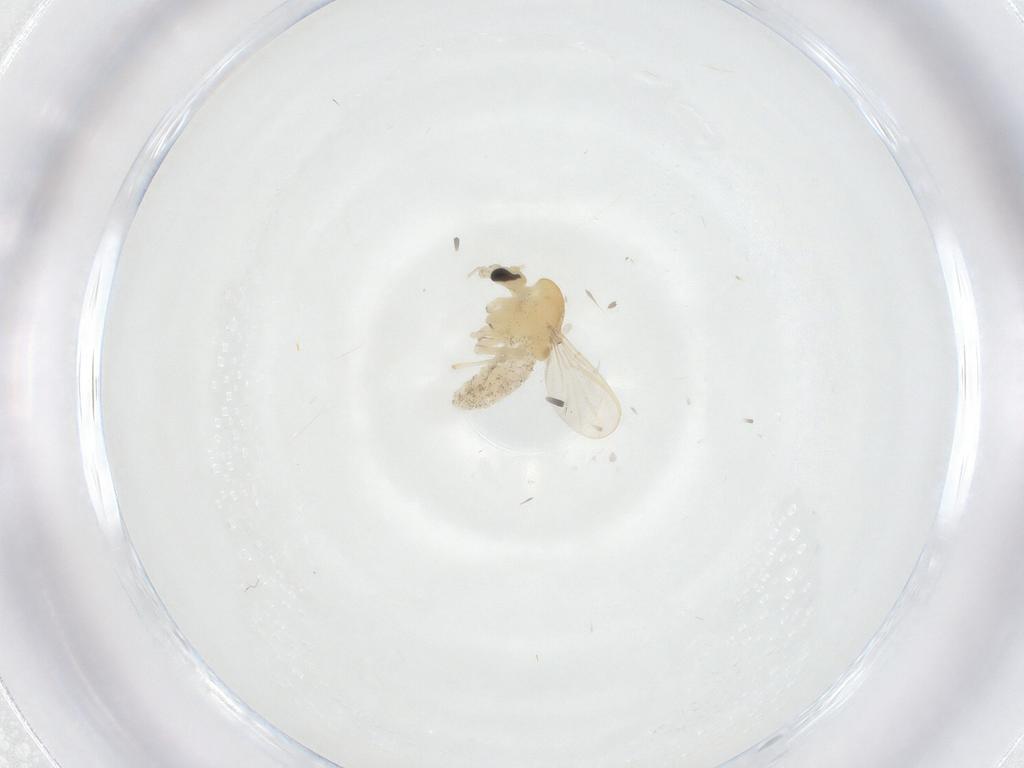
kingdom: Animalia
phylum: Arthropoda
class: Insecta
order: Diptera
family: Chironomidae
